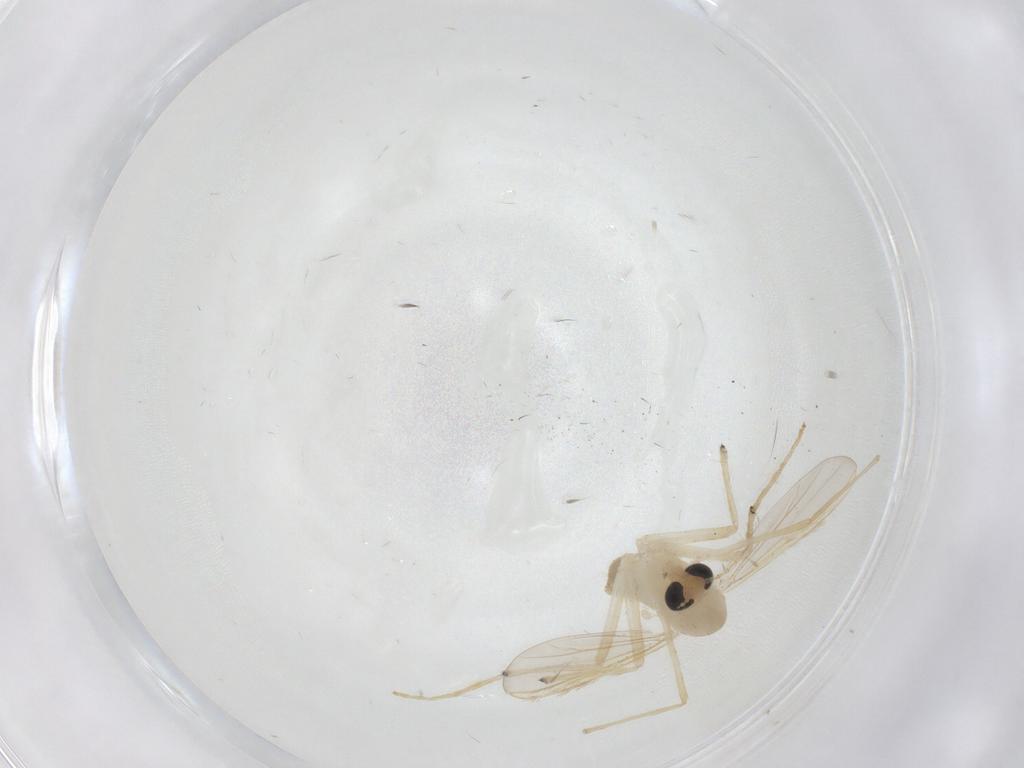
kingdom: Animalia
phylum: Arthropoda
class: Insecta
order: Diptera
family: Chironomidae
